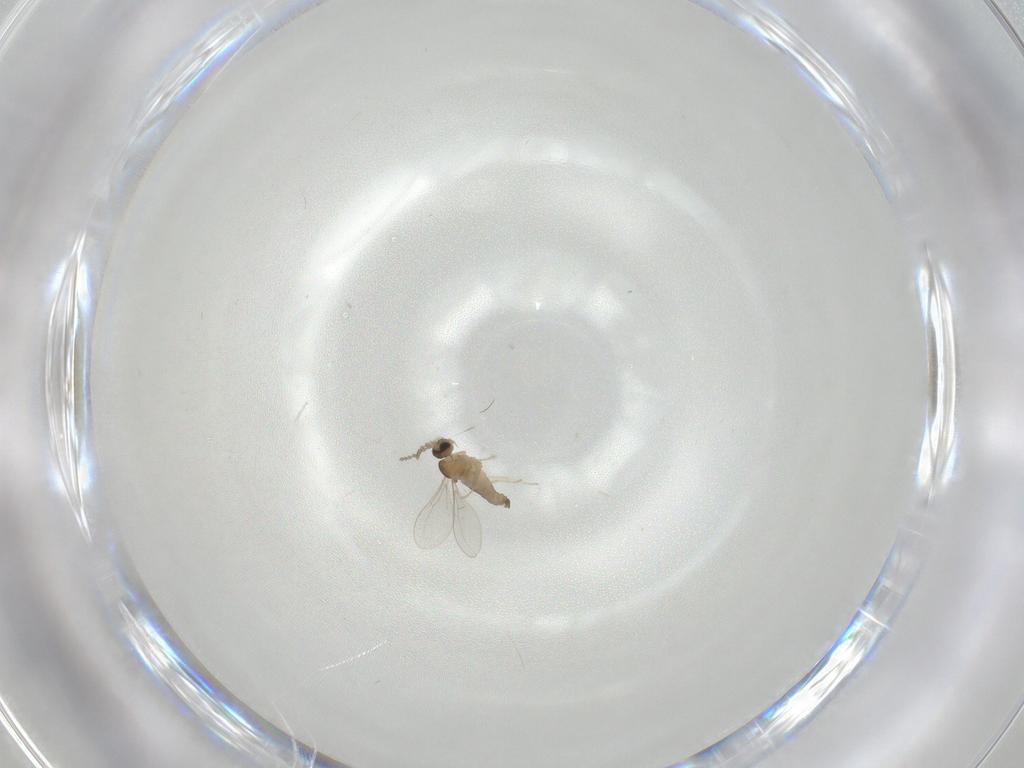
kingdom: Animalia
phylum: Arthropoda
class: Insecta
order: Diptera
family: Cecidomyiidae
